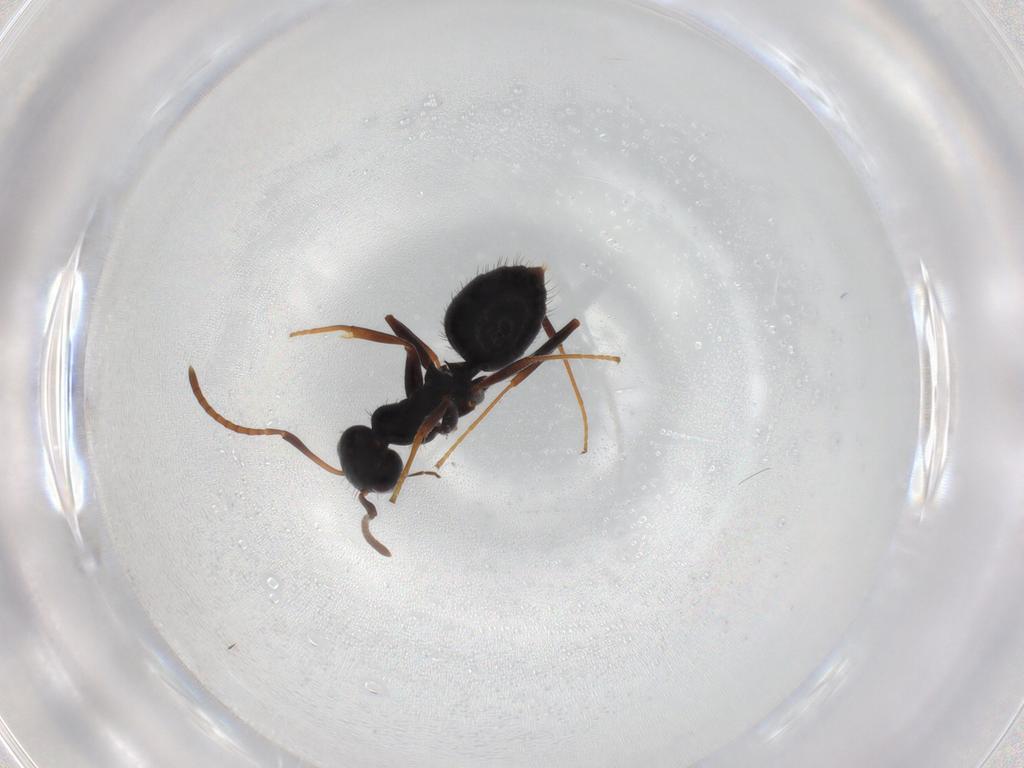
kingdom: Animalia
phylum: Arthropoda
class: Insecta
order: Hymenoptera
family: Formicidae
